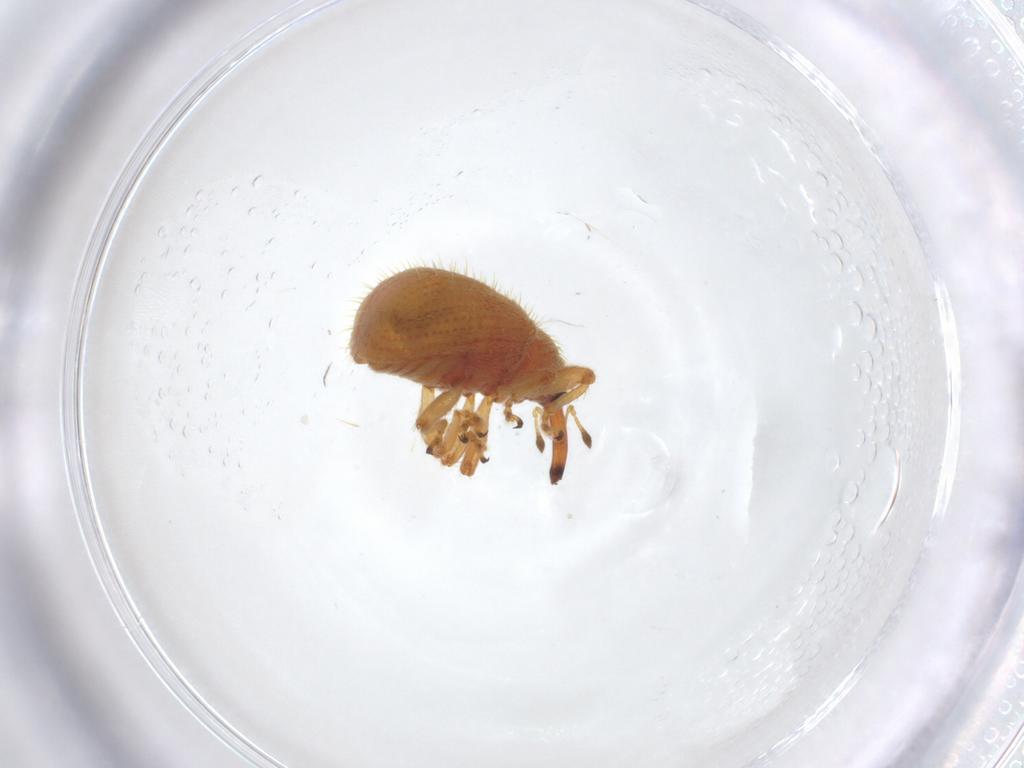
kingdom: Animalia
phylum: Arthropoda
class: Insecta
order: Coleoptera
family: Curculionidae
